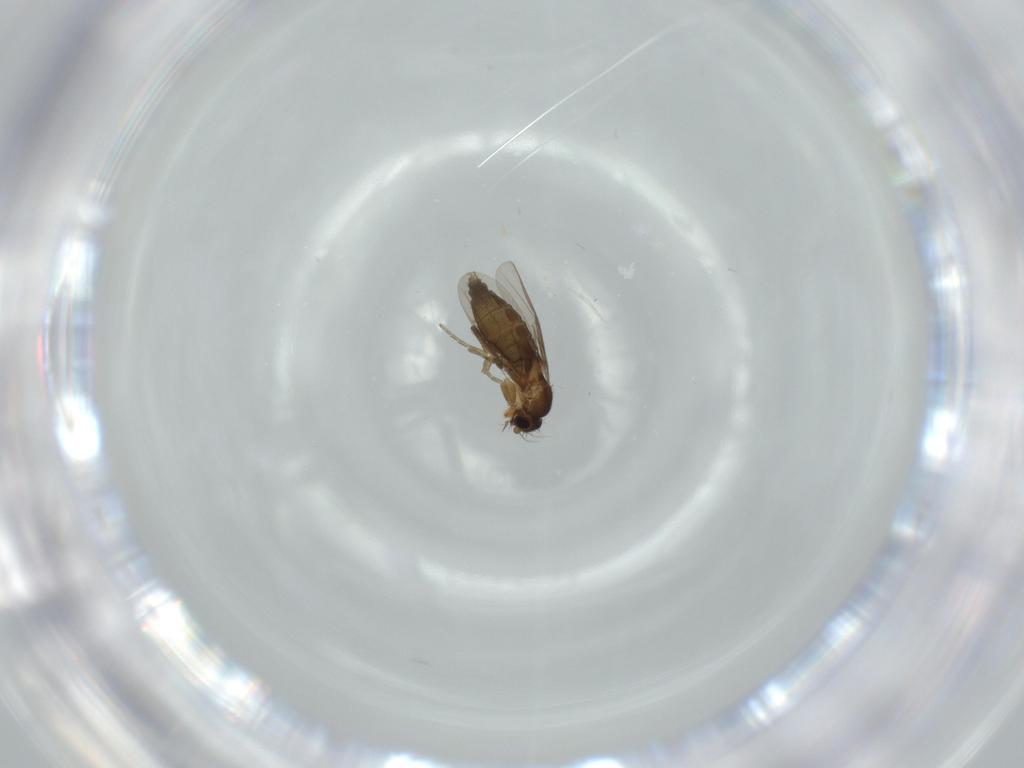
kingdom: Animalia
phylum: Arthropoda
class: Insecta
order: Diptera
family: Phoridae
